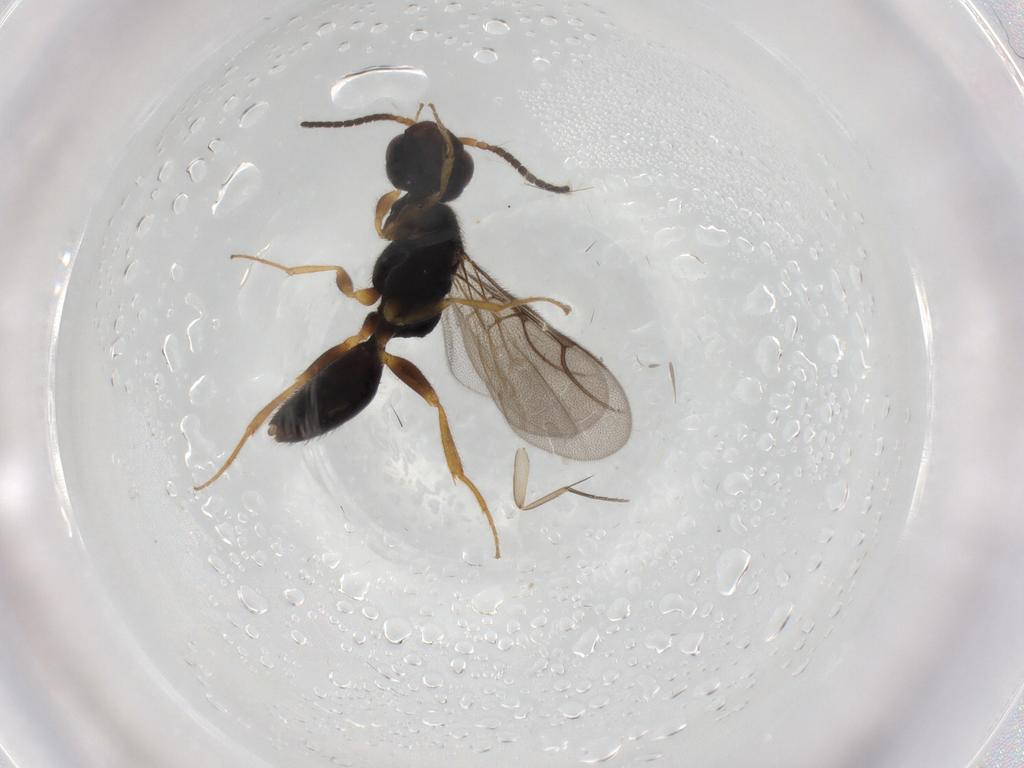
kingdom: Animalia
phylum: Arthropoda
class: Insecta
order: Hymenoptera
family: Bethylidae
